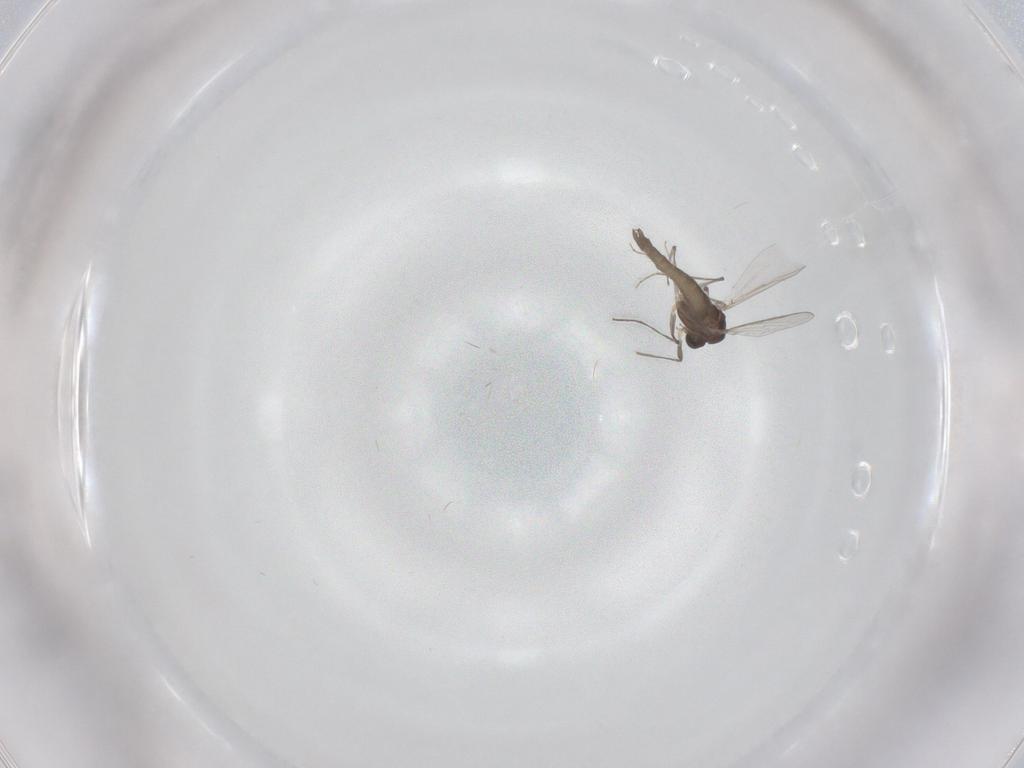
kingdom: Animalia
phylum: Arthropoda
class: Insecta
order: Diptera
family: Chironomidae
